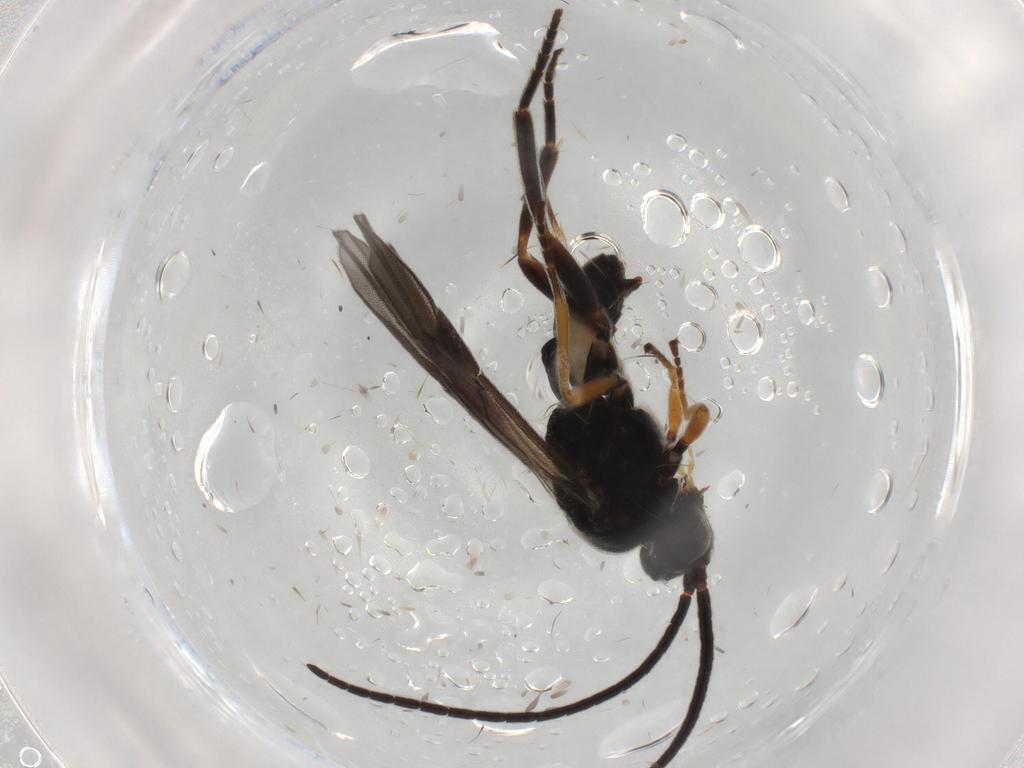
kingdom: Animalia
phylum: Arthropoda
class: Insecta
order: Hymenoptera
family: Braconidae
